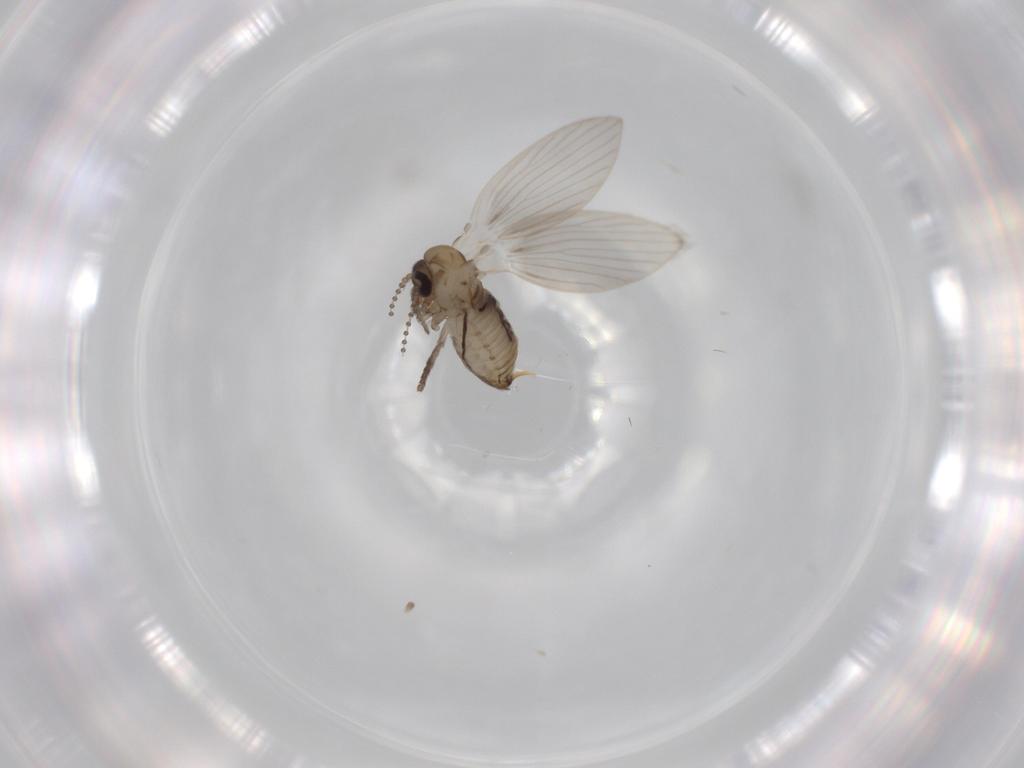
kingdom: Animalia
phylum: Arthropoda
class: Insecta
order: Diptera
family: Psychodidae
